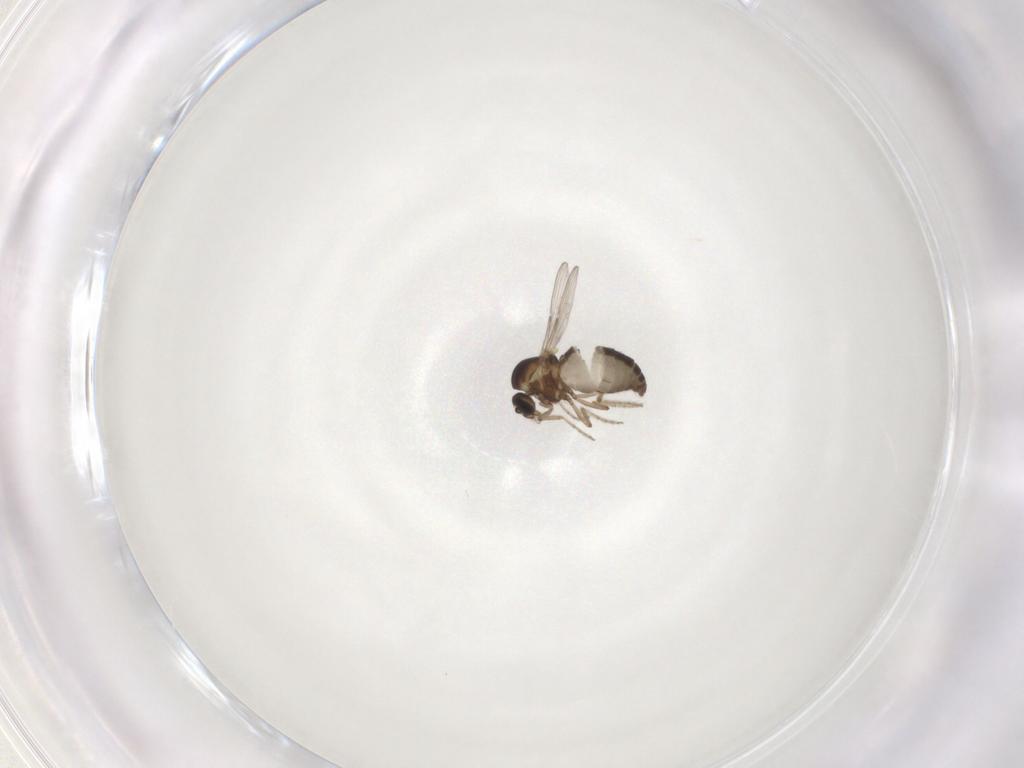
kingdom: Animalia
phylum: Arthropoda
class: Insecta
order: Diptera
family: Ceratopogonidae
